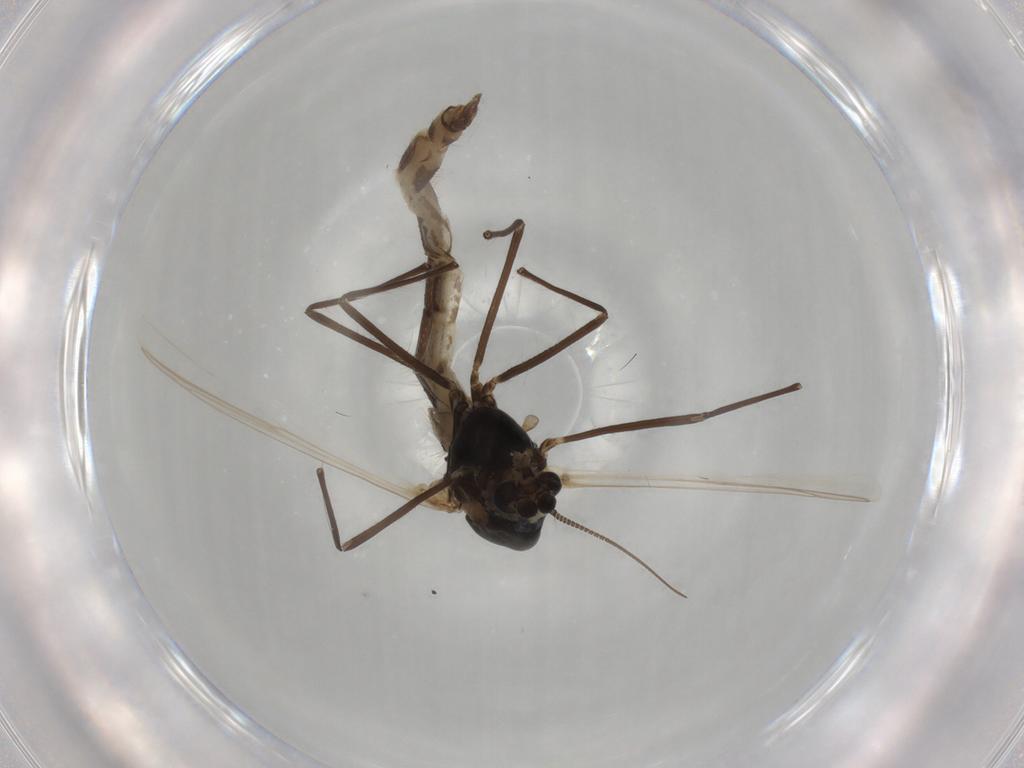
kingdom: Animalia
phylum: Arthropoda
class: Insecta
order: Diptera
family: Chironomidae
